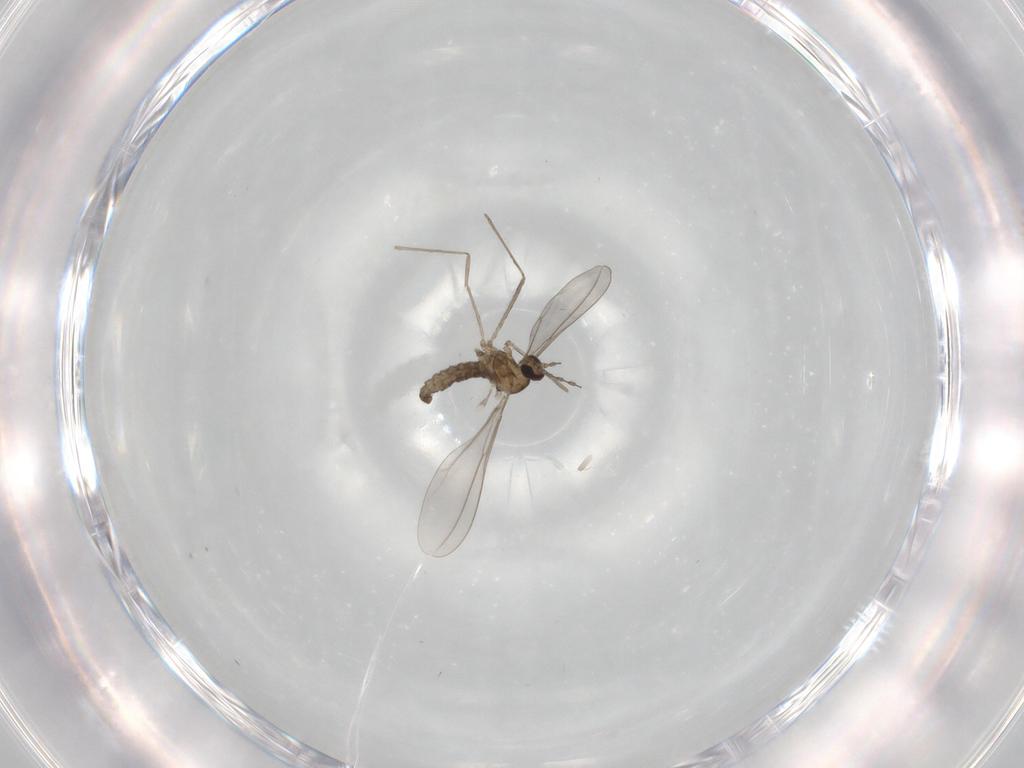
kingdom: Animalia
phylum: Arthropoda
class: Insecta
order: Diptera
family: Cecidomyiidae
